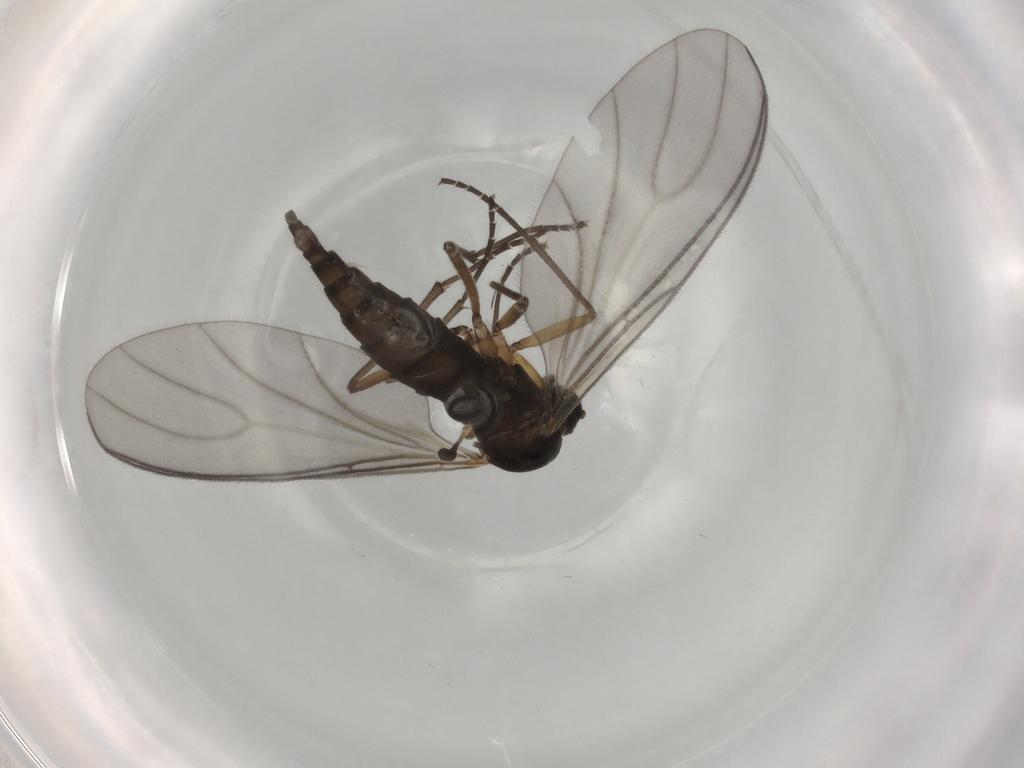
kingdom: Animalia
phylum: Arthropoda
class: Insecta
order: Diptera
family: Sciaridae
